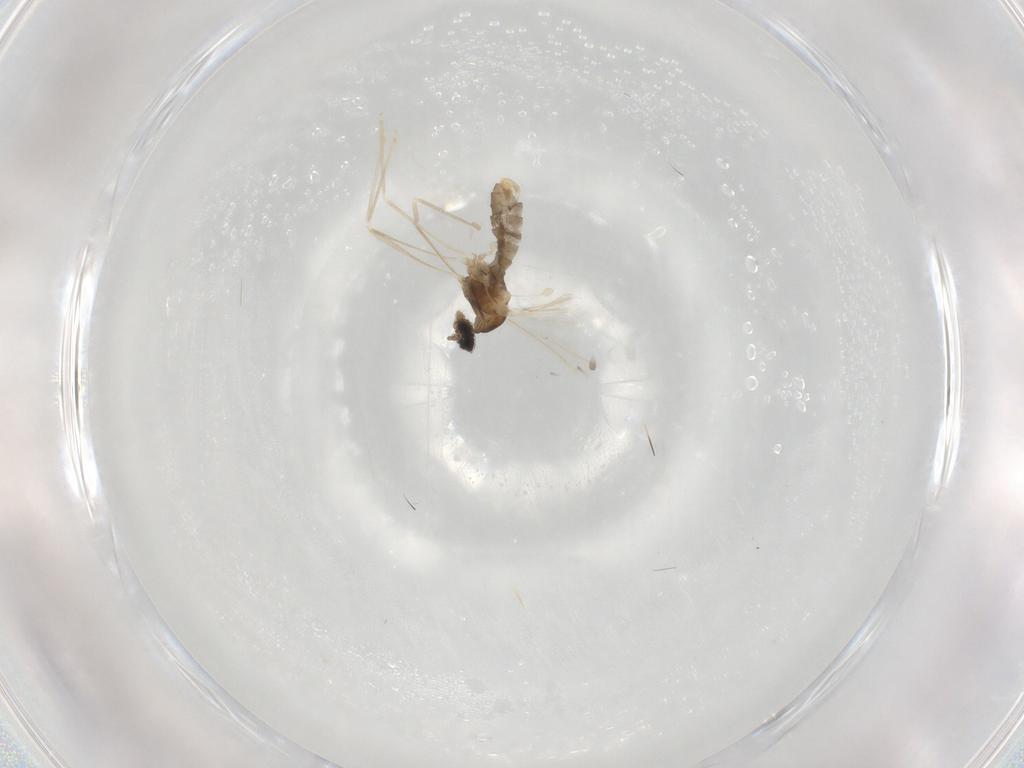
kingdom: Animalia
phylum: Arthropoda
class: Insecta
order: Diptera
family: Cecidomyiidae
